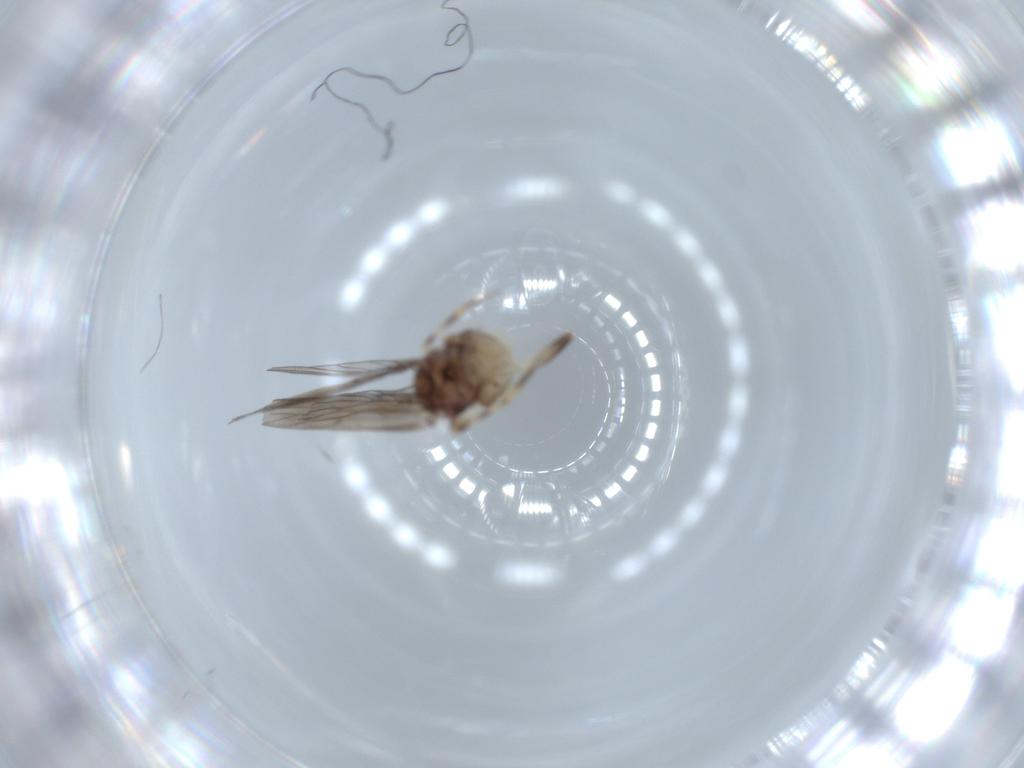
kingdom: Animalia
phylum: Arthropoda
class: Insecta
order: Psocodea
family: Lepidopsocidae
